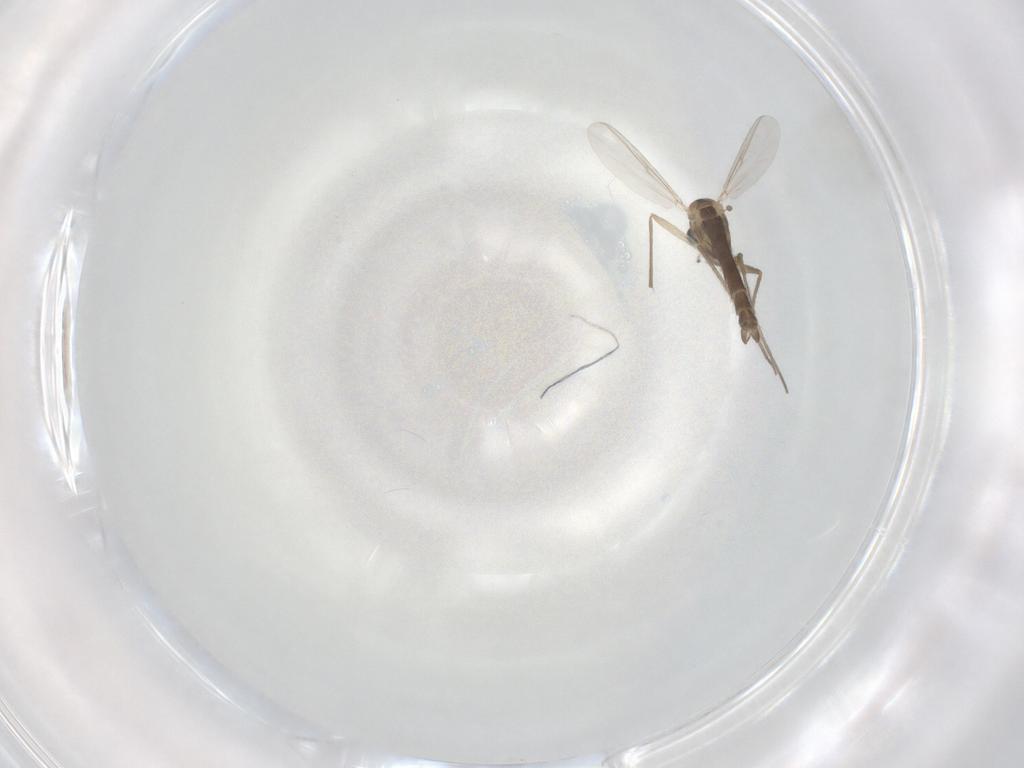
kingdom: Animalia
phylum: Arthropoda
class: Insecta
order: Diptera
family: Chironomidae
